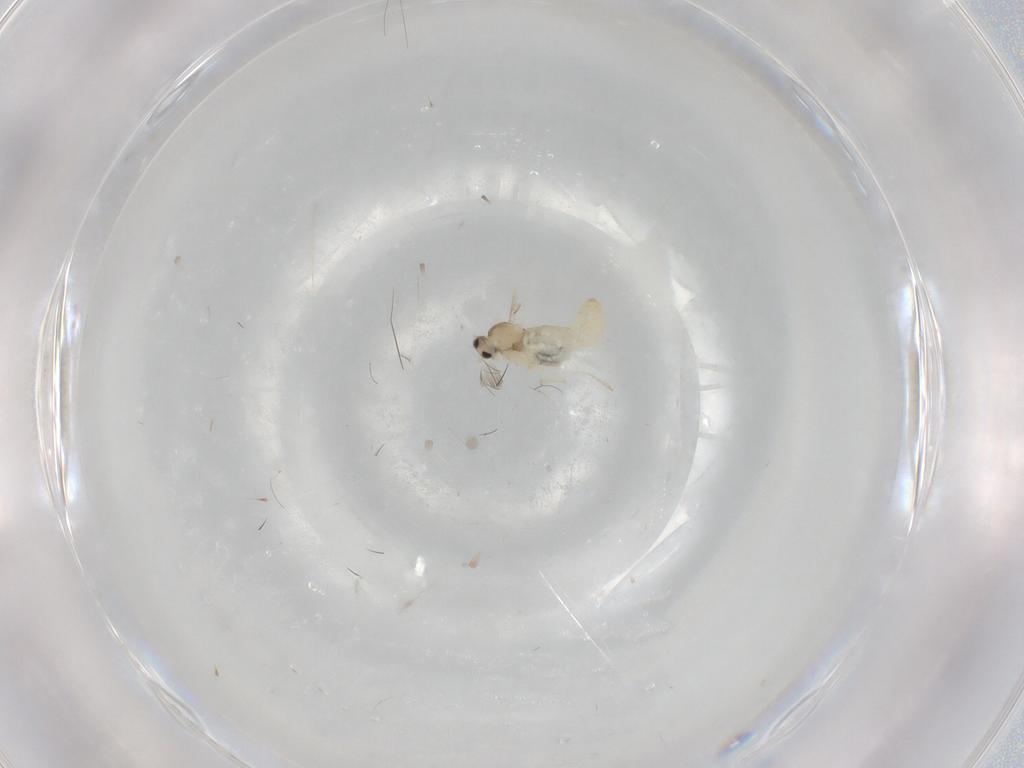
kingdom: Animalia
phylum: Arthropoda
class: Insecta
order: Diptera
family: Cecidomyiidae
